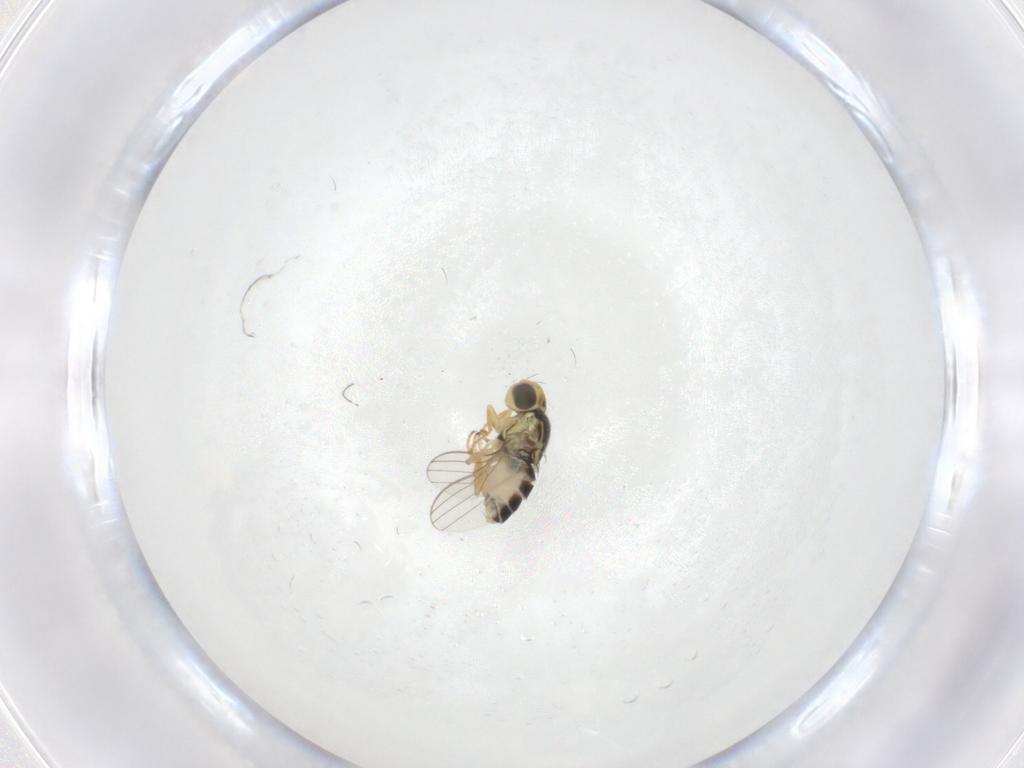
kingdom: Animalia
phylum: Arthropoda
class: Insecta
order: Diptera
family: Chloropidae
